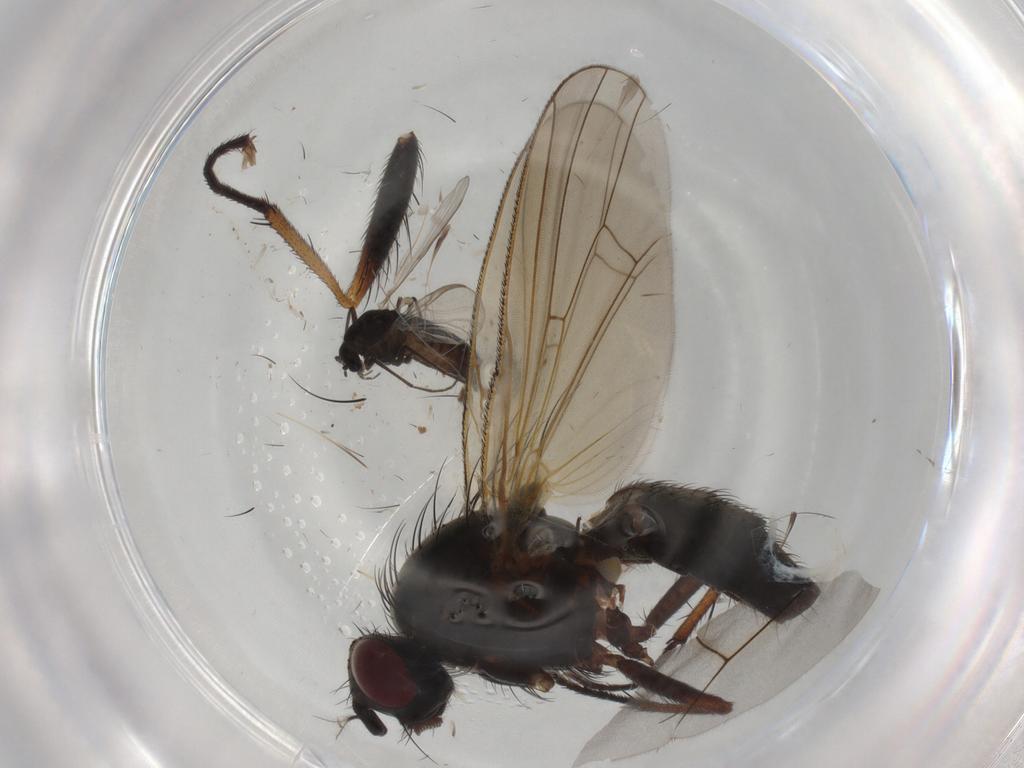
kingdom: Animalia
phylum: Arthropoda
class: Insecta
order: Diptera
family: Anthomyiidae
